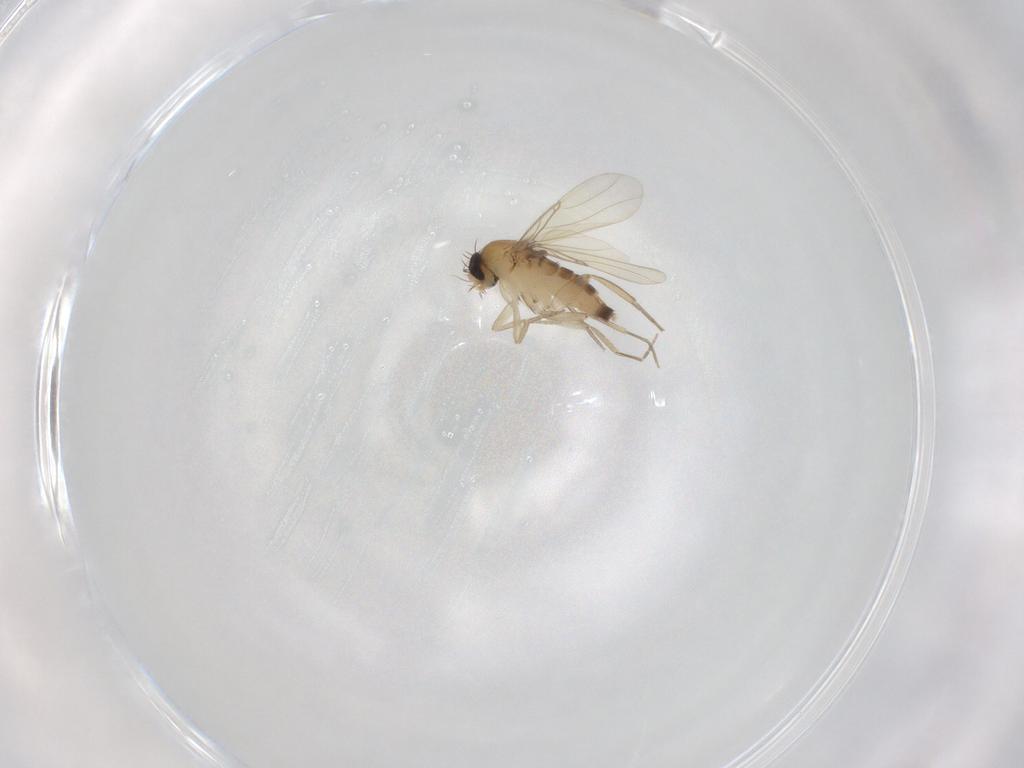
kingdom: Animalia
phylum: Arthropoda
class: Insecta
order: Diptera
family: Phoridae
